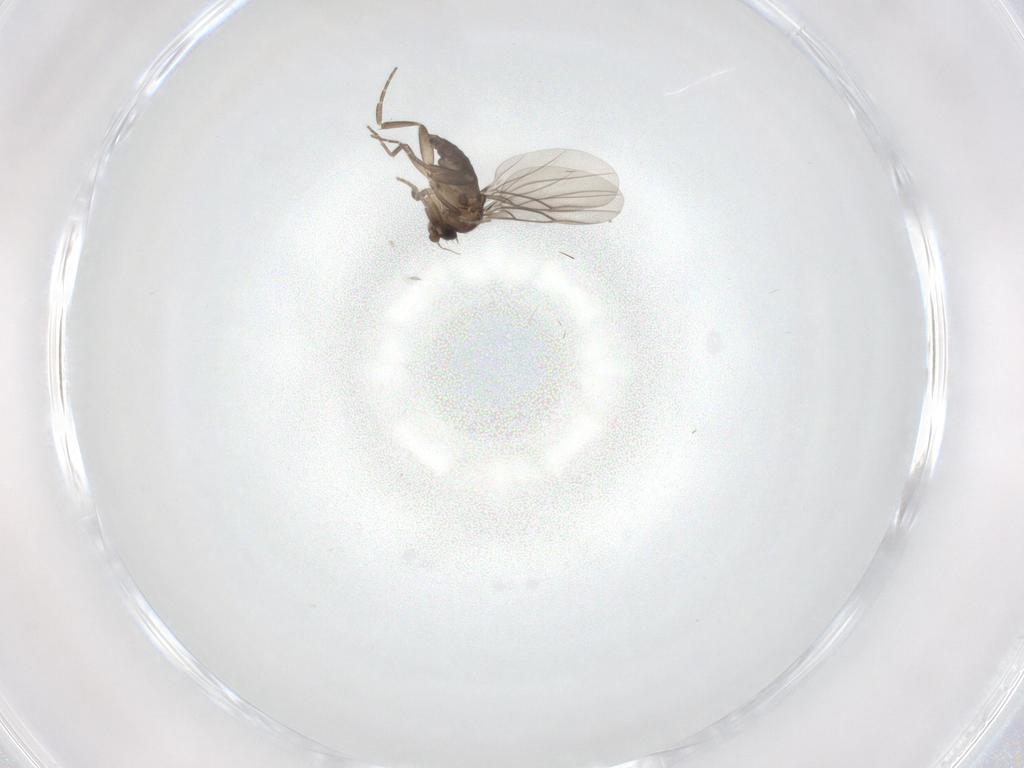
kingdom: Animalia
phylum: Arthropoda
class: Insecta
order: Diptera
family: Phoridae
